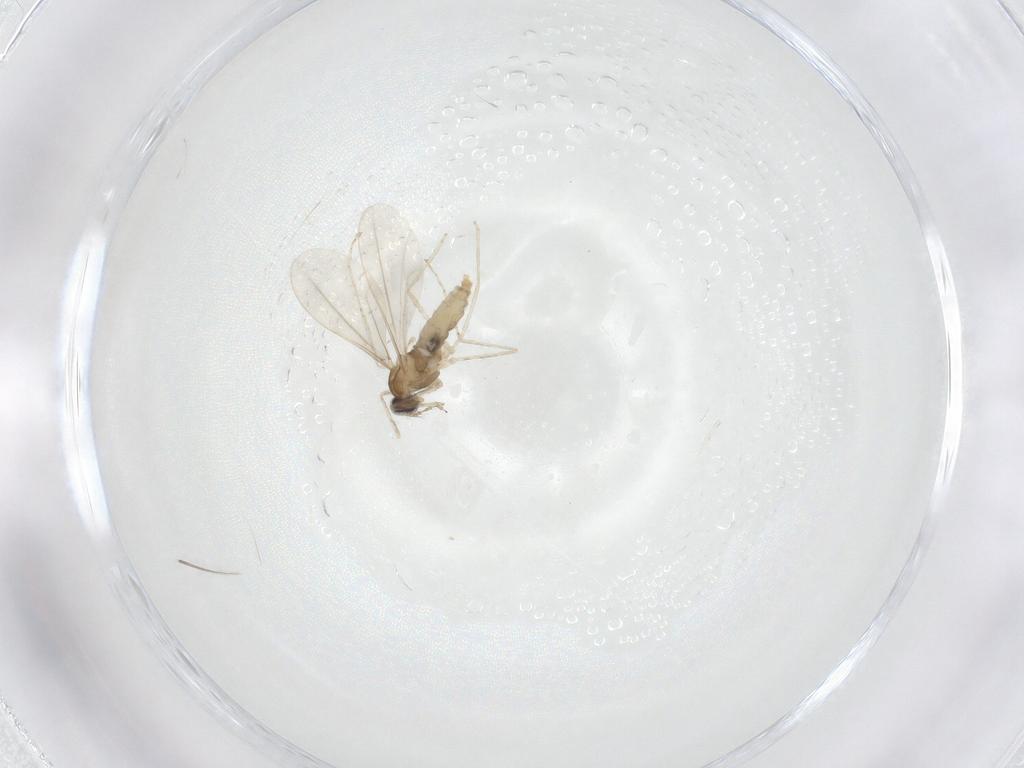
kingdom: Animalia
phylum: Arthropoda
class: Insecta
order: Diptera
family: Cecidomyiidae
